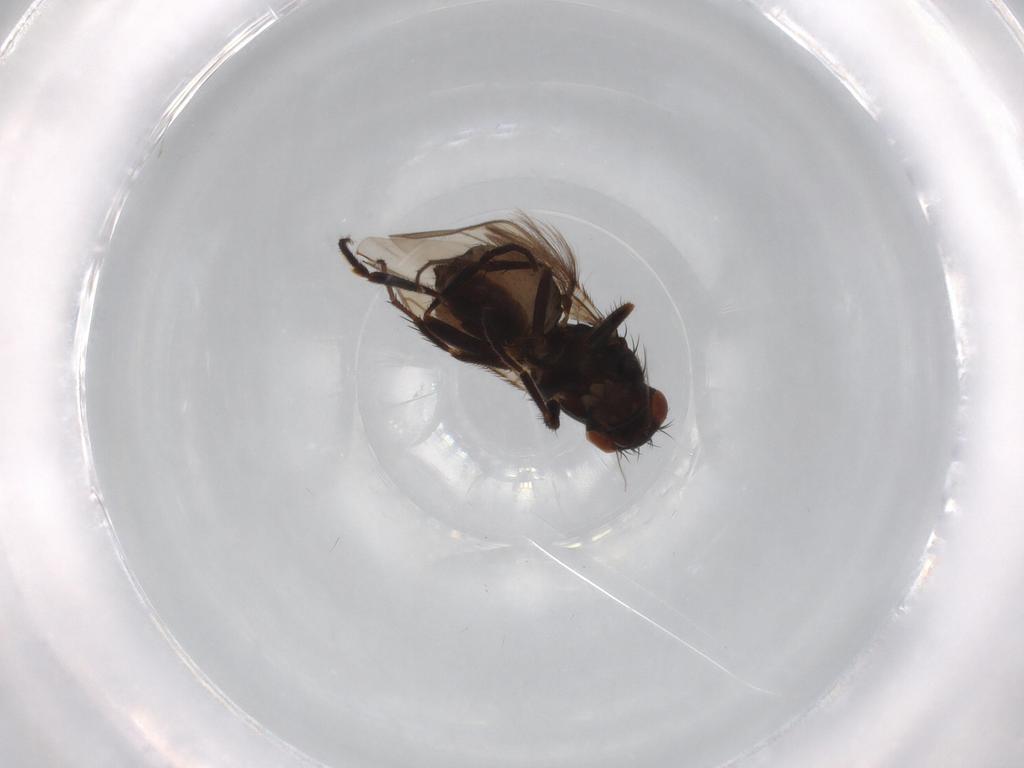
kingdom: Animalia
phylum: Arthropoda
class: Insecta
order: Diptera
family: Sphaeroceridae
